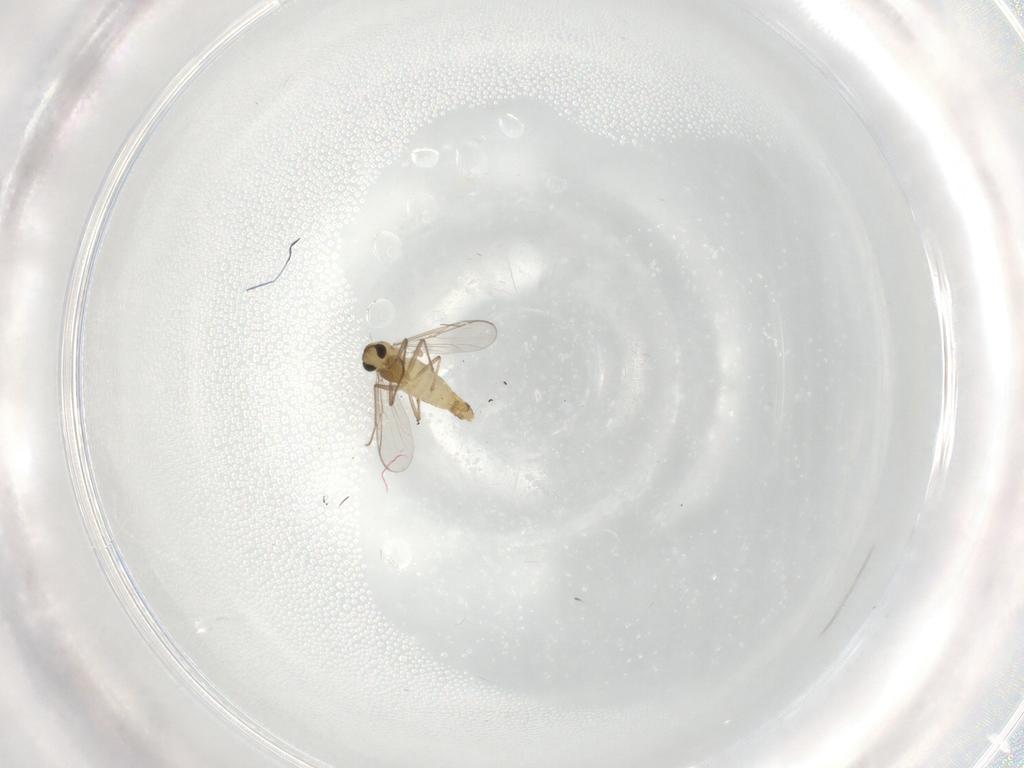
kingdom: Animalia
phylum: Arthropoda
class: Insecta
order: Diptera
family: Chironomidae
